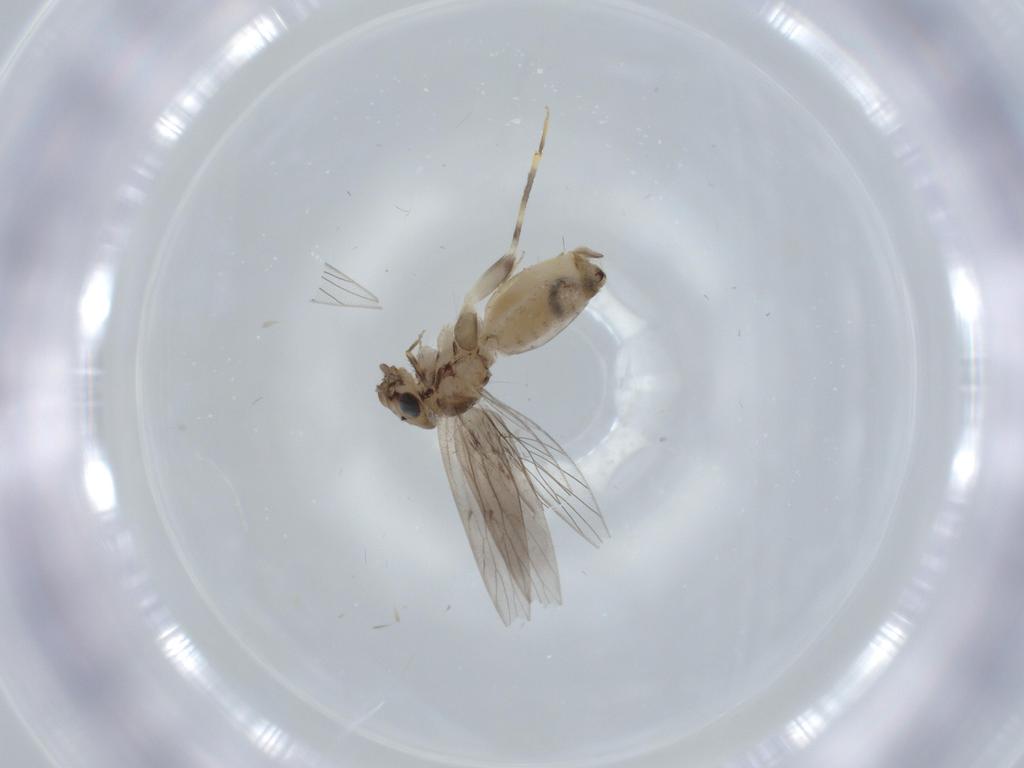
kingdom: Animalia
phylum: Arthropoda
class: Insecta
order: Psocodea
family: Lepidopsocidae
